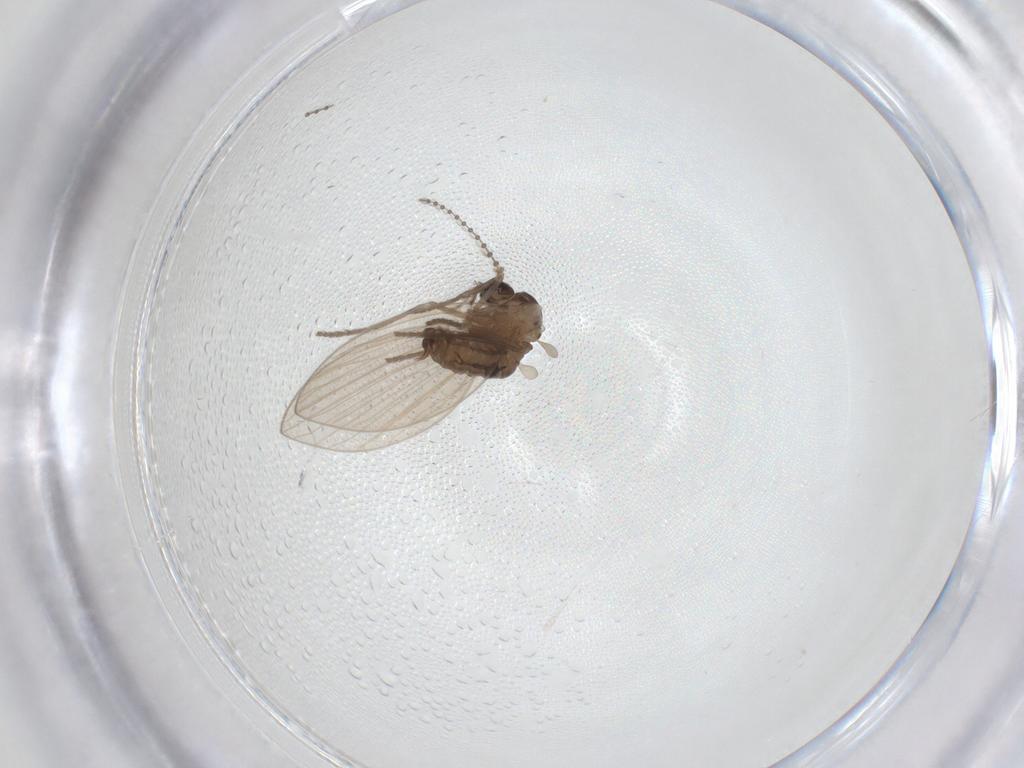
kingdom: Animalia
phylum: Arthropoda
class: Insecta
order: Diptera
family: Psychodidae
